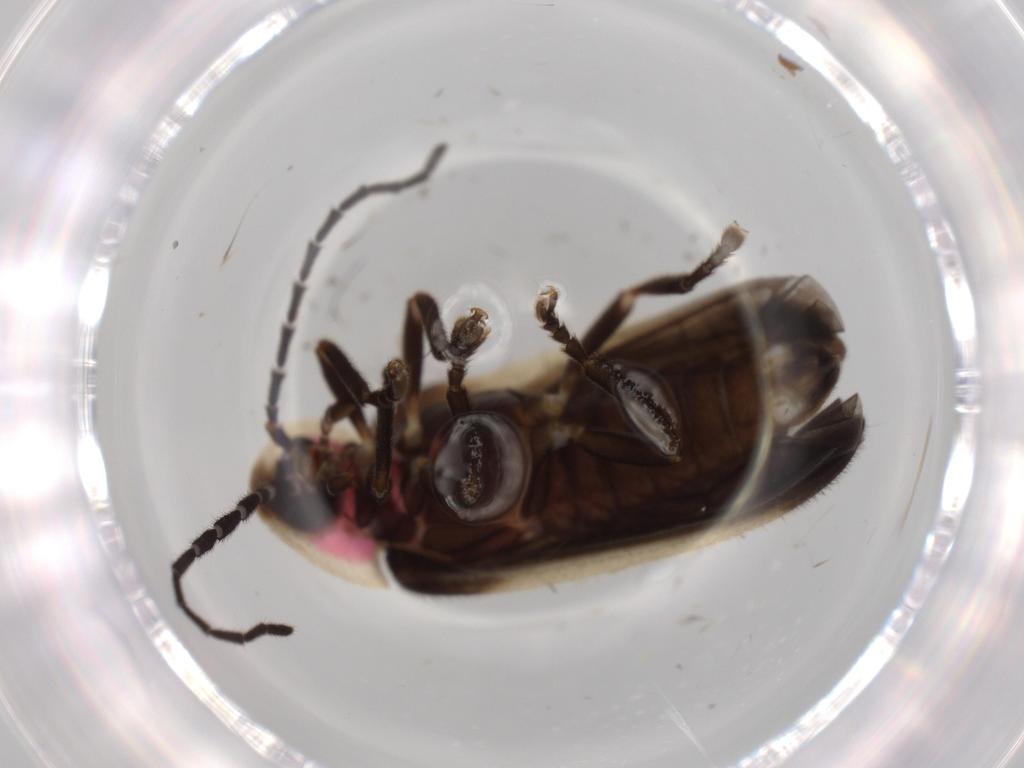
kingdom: Animalia
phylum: Arthropoda
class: Insecta
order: Coleoptera
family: Lampyridae
